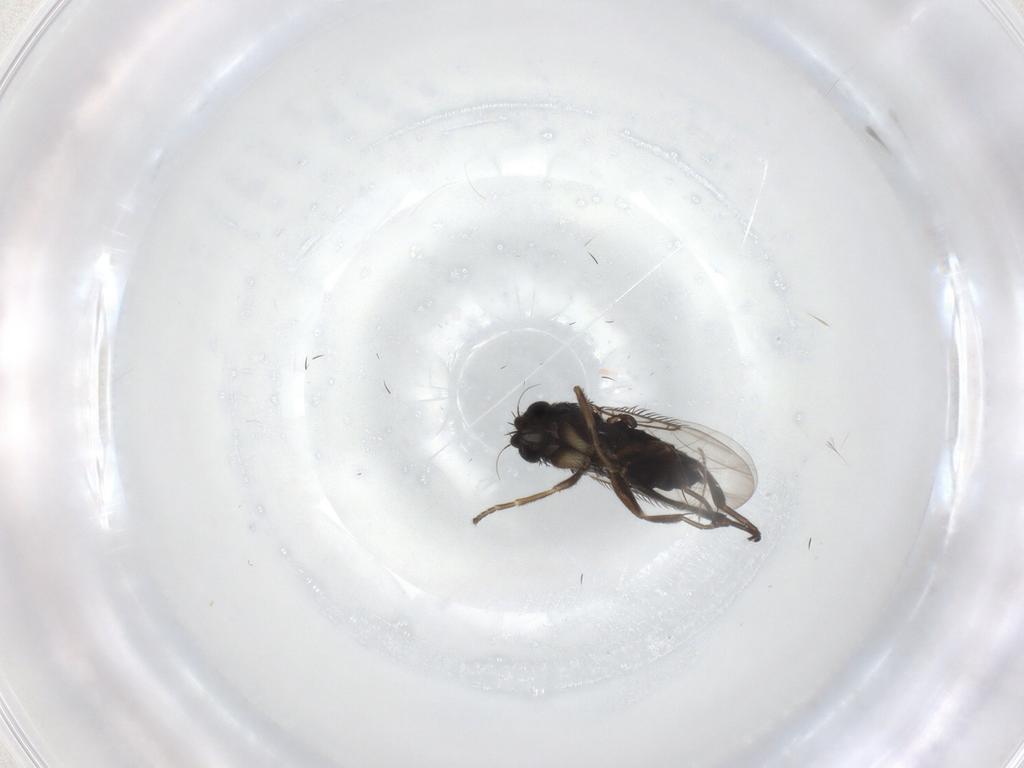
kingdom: Animalia
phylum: Arthropoda
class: Insecta
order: Diptera
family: Phoridae
